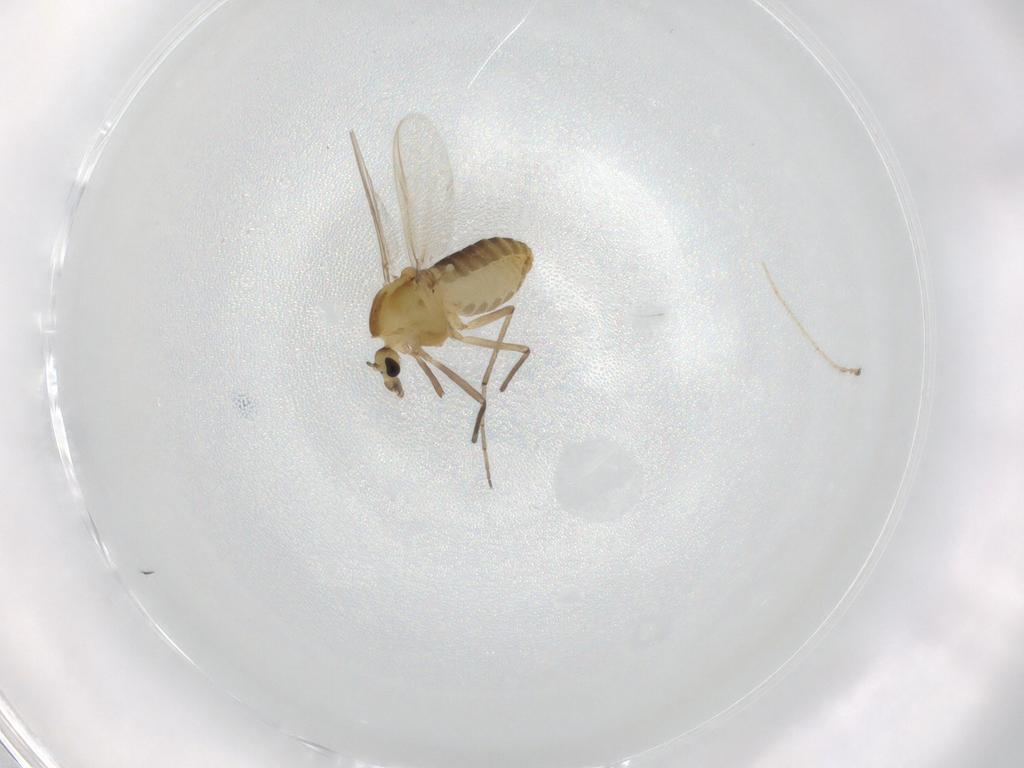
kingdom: Animalia
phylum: Arthropoda
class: Insecta
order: Diptera
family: Chironomidae
